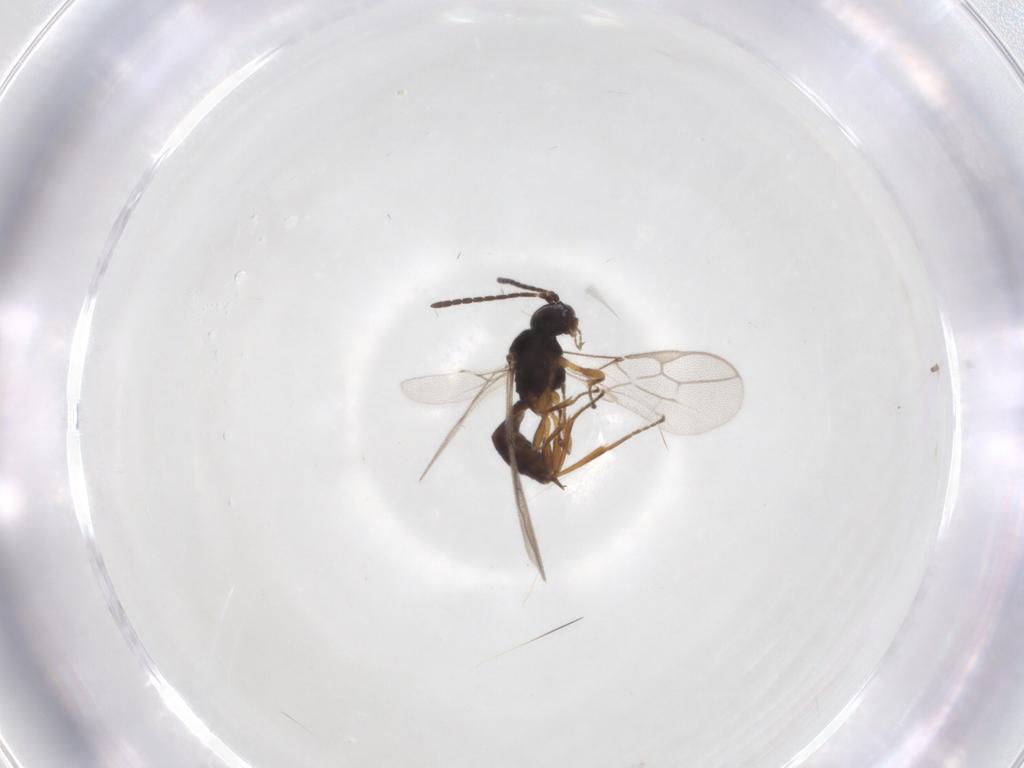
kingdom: Animalia
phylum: Arthropoda
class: Insecta
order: Hymenoptera
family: Braconidae
